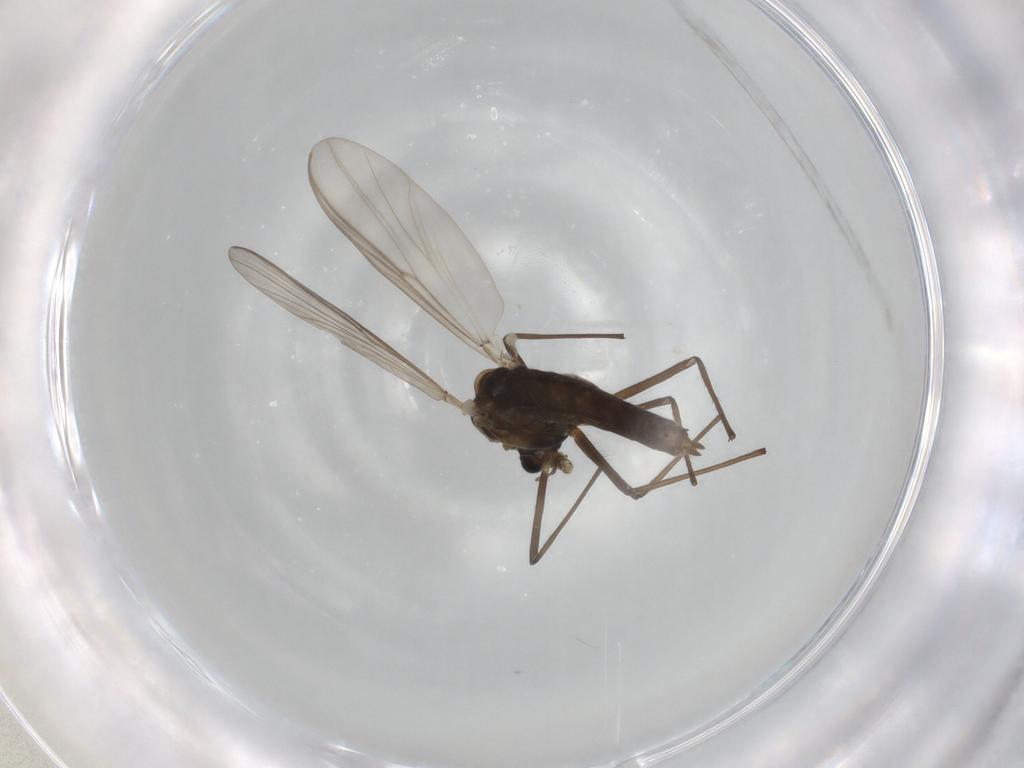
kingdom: Animalia
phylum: Arthropoda
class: Insecta
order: Diptera
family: Chironomidae
